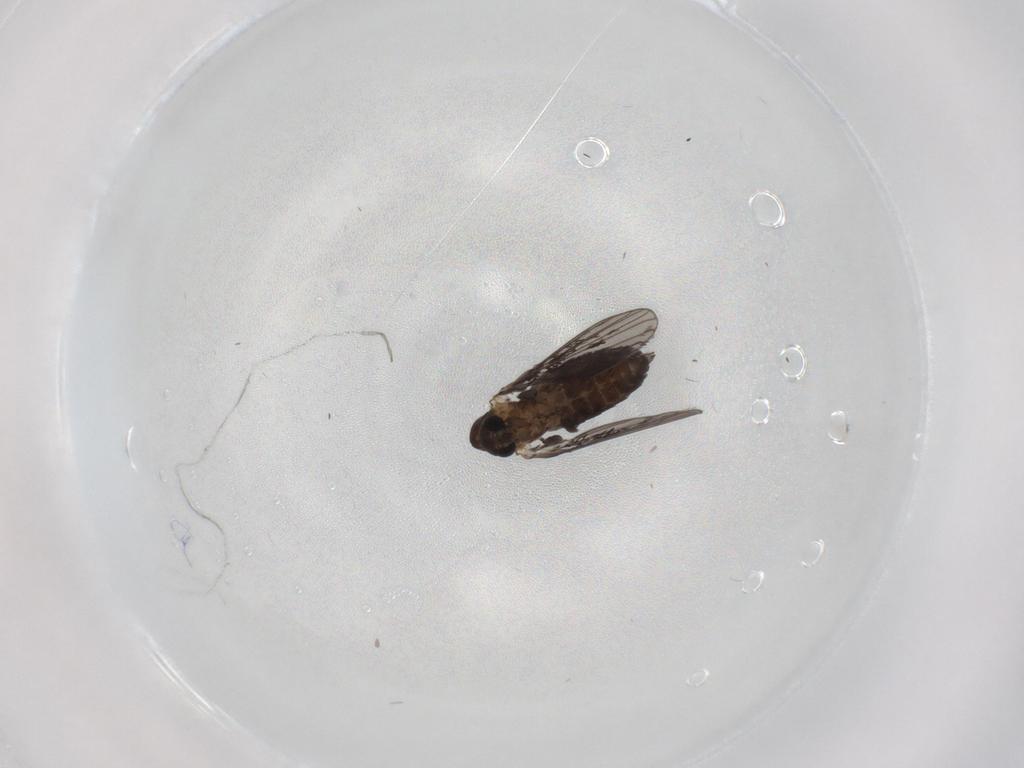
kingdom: Animalia
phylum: Arthropoda
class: Insecta
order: Diptera
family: Psychodidae
